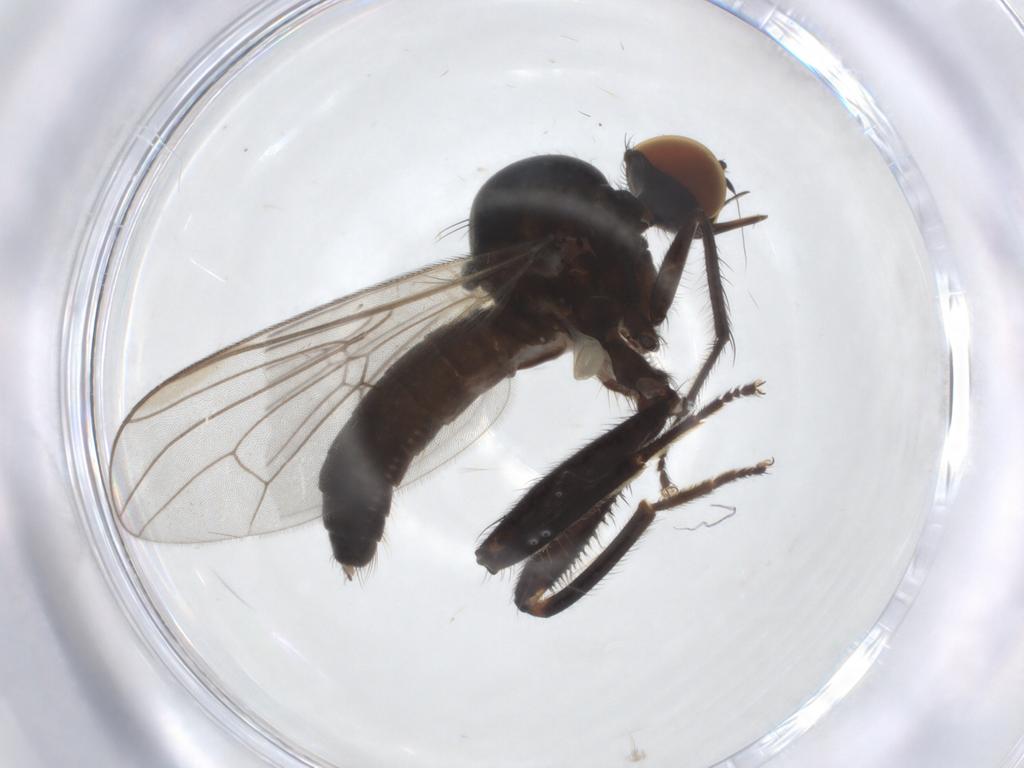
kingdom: Animalia
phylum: Arthropoda
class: Insecta
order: Diptera
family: Hybotidae
